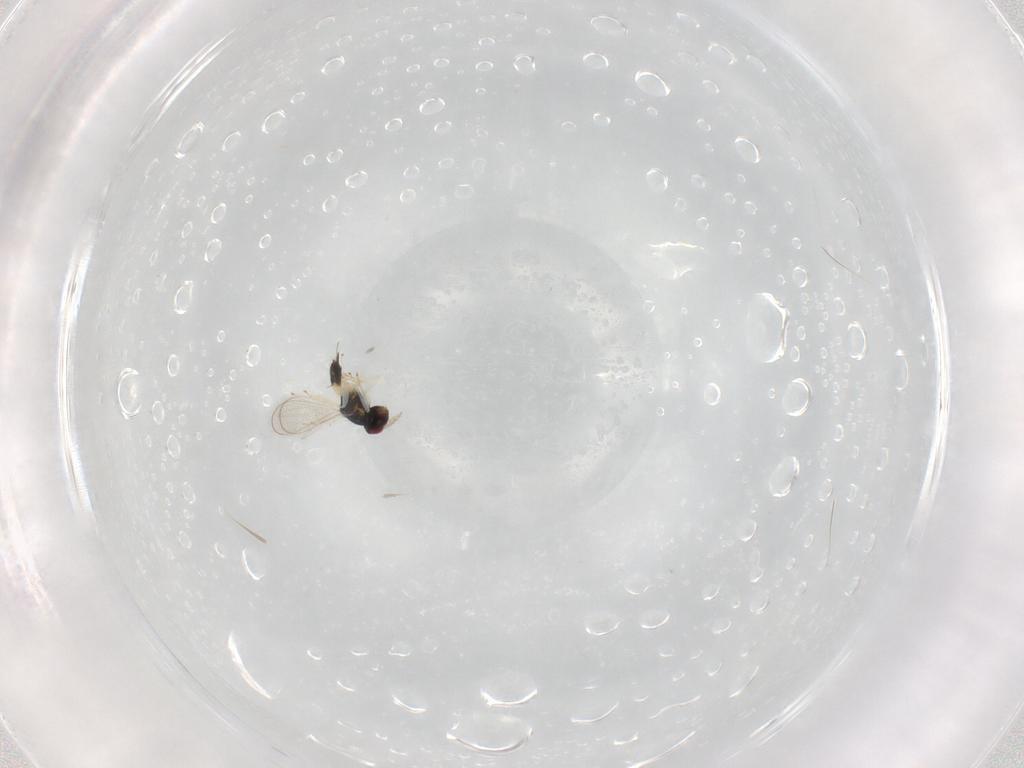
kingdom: Animalia
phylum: Arthropoda
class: Insecta
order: Hymenoptera
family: Eulophidae
